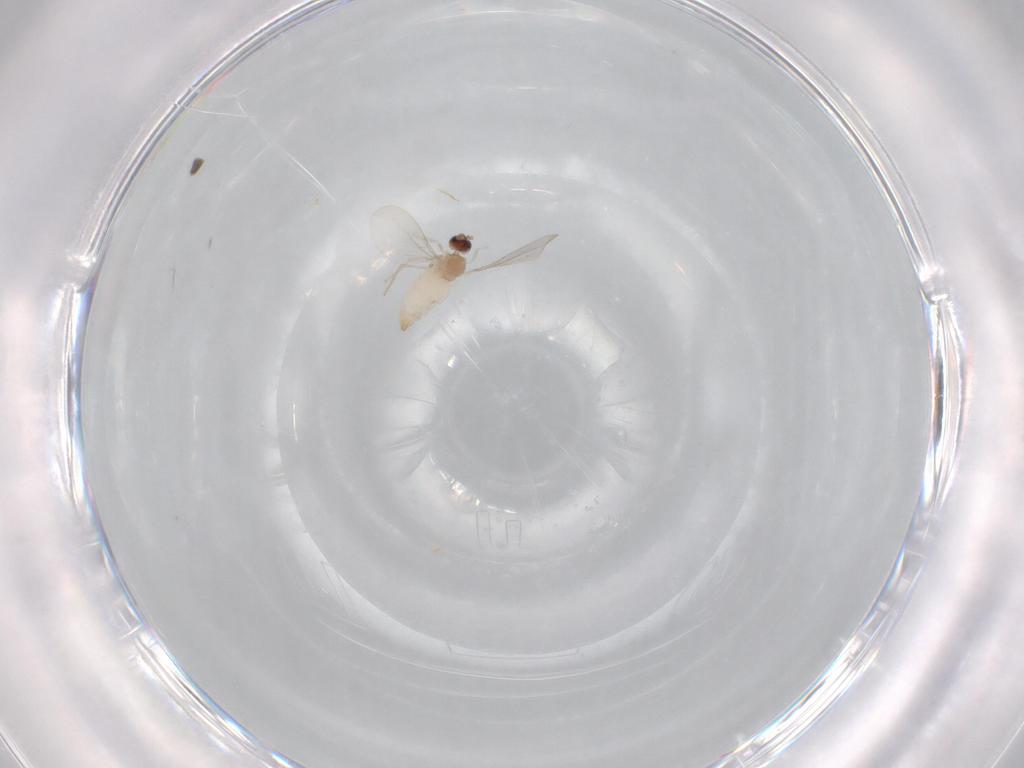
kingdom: Animalia
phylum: Arthropoda
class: Insecta
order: Diptera
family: Cecidomyiidae
